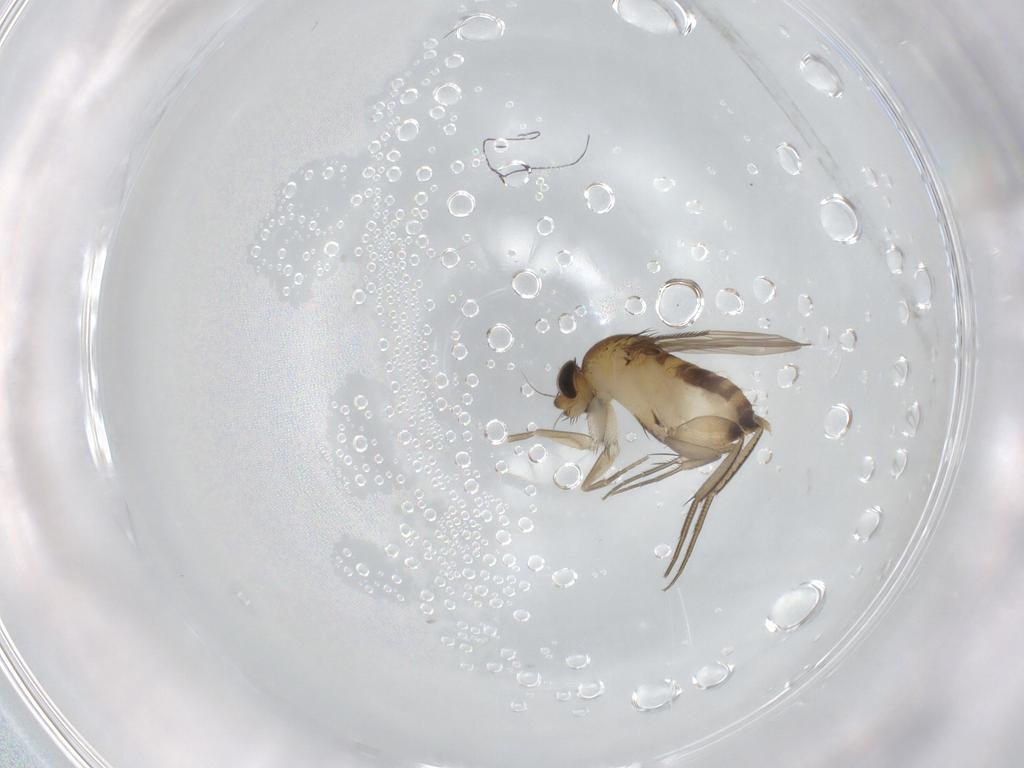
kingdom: Animalia
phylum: Arthropoda
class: Insecta
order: Diptera
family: Phoridae
